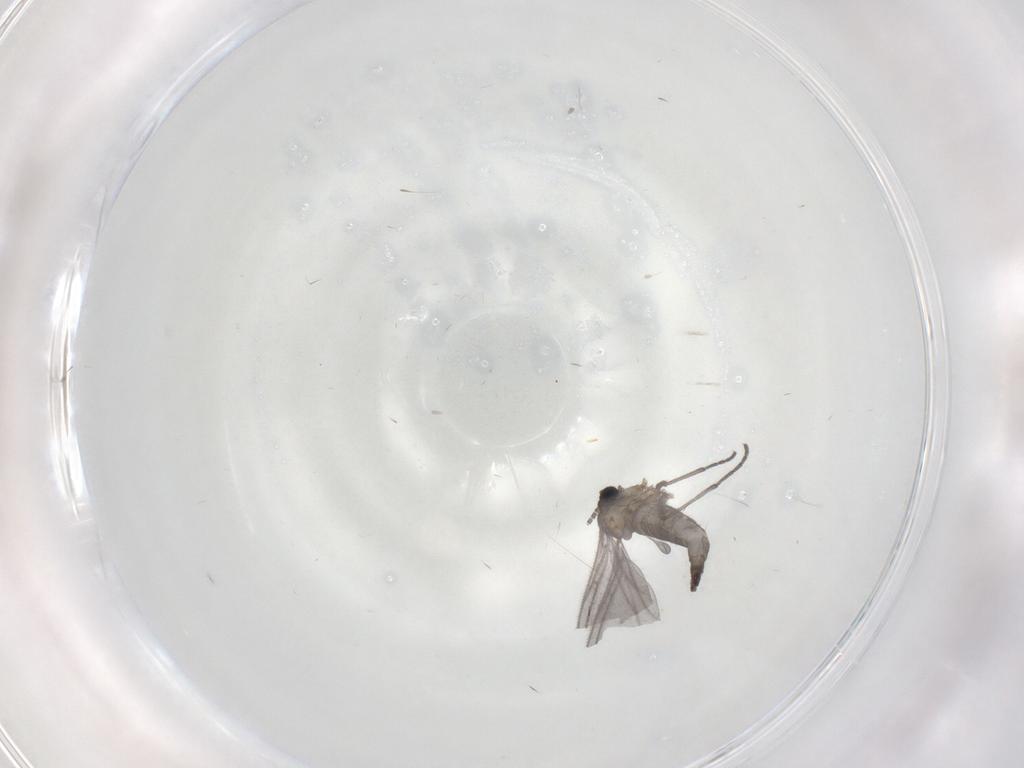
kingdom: Animalia
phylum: Arthropoda
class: Insecta
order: Diptera
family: Sciaridae
